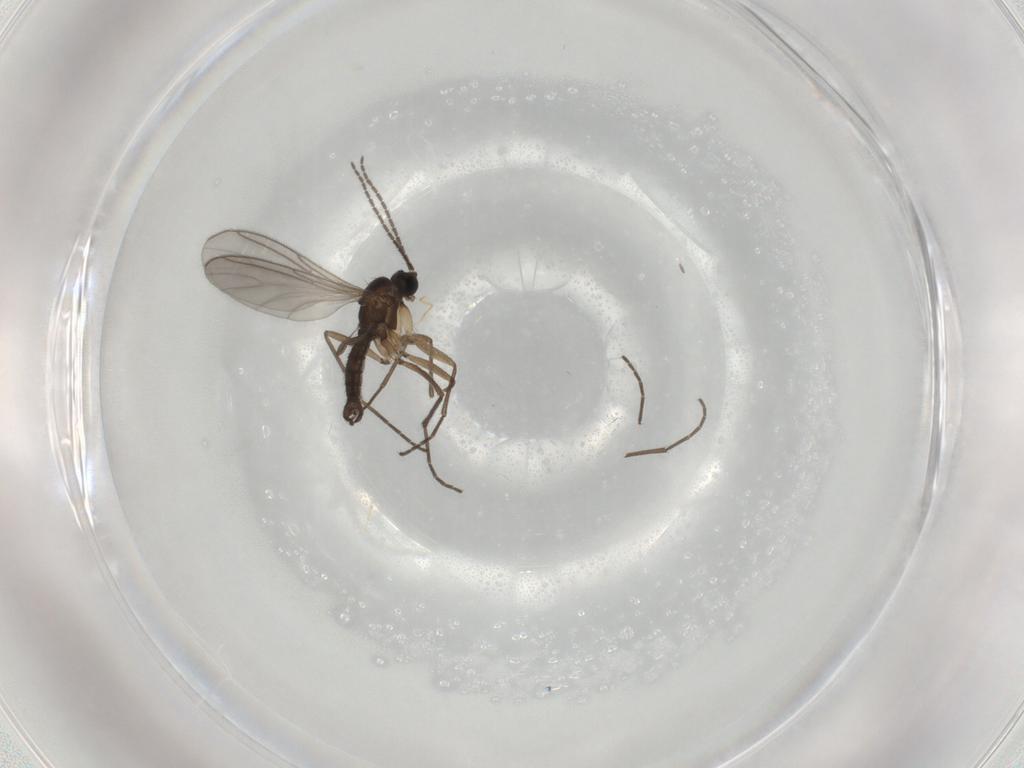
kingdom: Animalia
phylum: Arthropoda
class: Insecta
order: Diptera
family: Sciaridae
